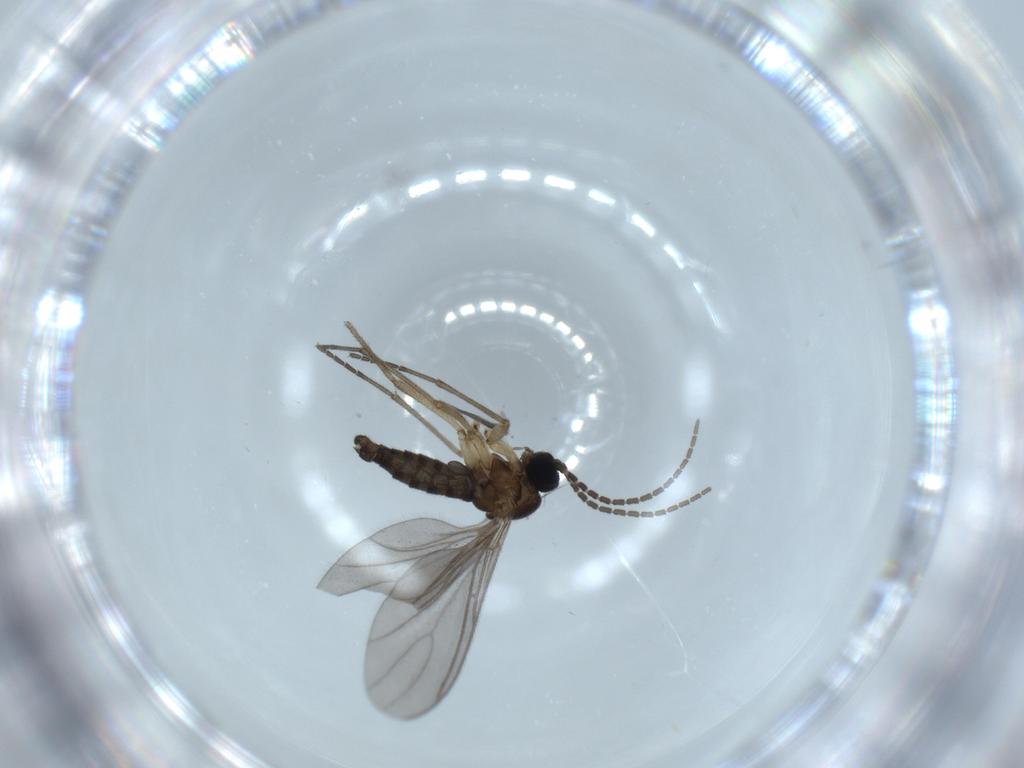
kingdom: Animalia
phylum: Arthropoda
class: Insecta
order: Diptera
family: Sciaridae
